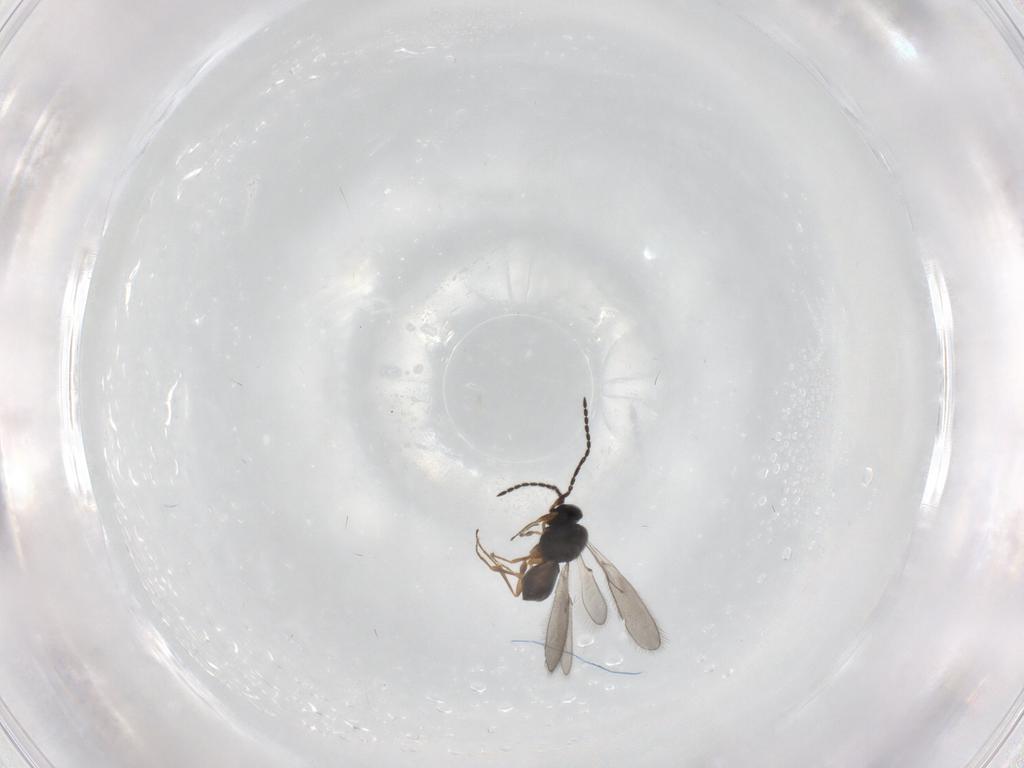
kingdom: Animalia
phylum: Arthropoda
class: Insecta
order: Hymenoptera
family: Scelionidae
